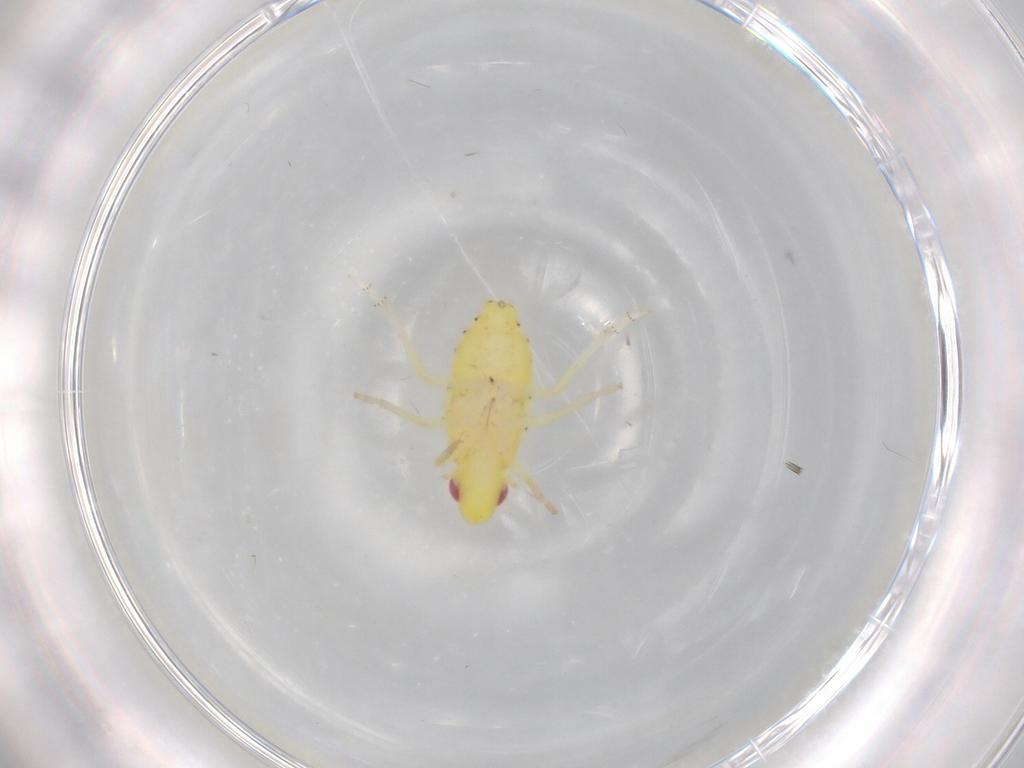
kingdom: Animalia
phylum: Arthropoda
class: Insecta
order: Hemiptera
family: Tropiduchidae
